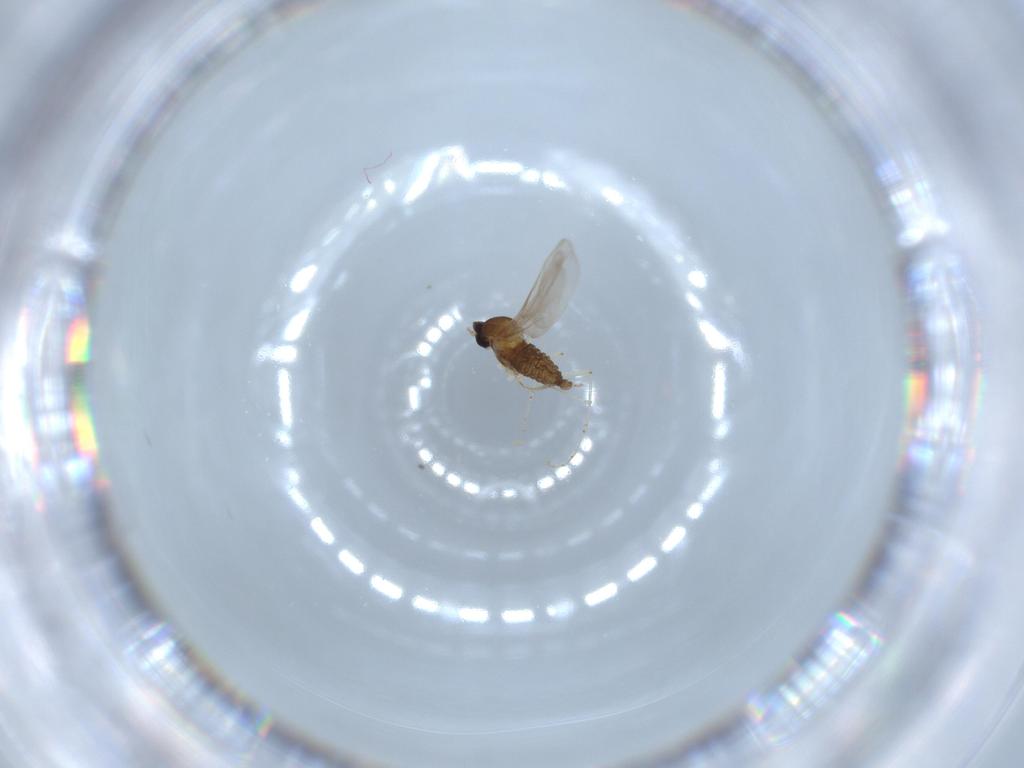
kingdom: Animalia
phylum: Arthropoda
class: Insecta
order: Diptera
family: Cecidomyiidae
